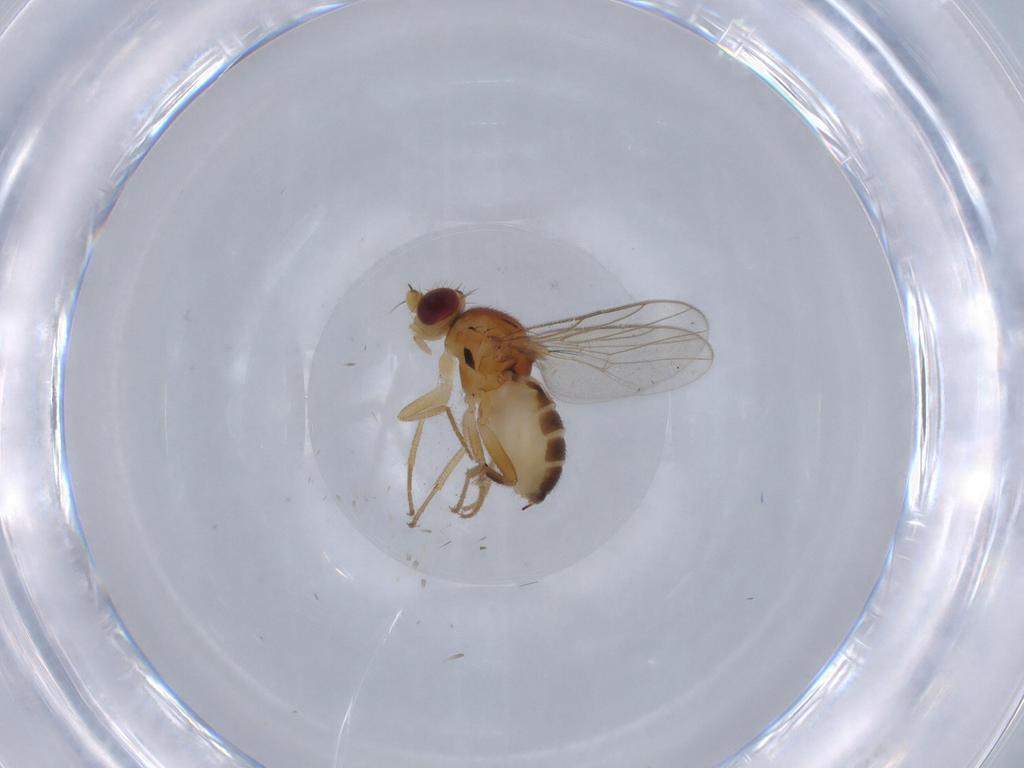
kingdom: Animalia
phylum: Arthropoda
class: Insecta
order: Diptera
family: Chloropidae
